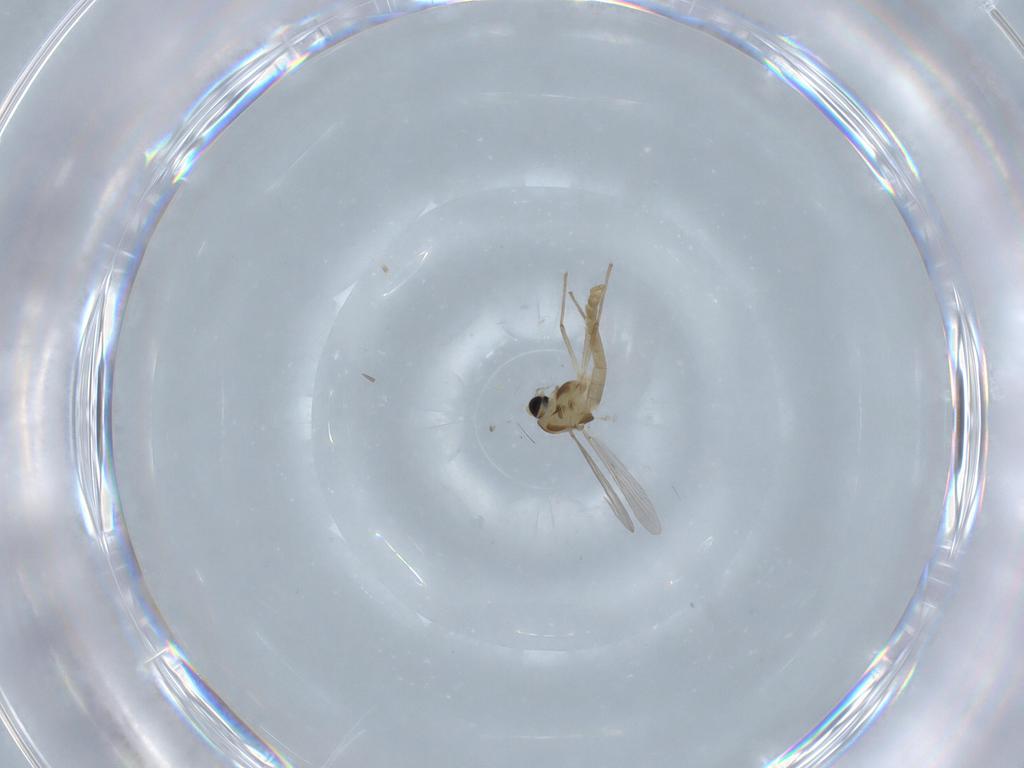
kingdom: Animalia
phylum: Arthropoda
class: Insecta
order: Diptera
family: Chironomidae
